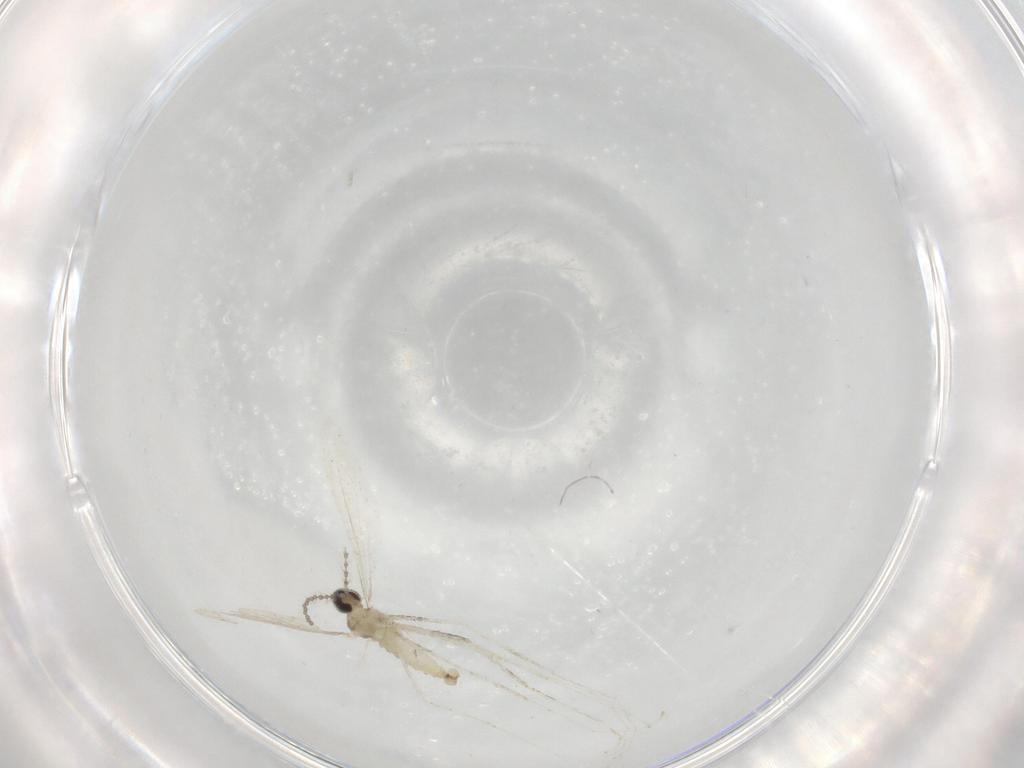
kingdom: Animalia
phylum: Arthropoda
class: Insecta
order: Diptera
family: Cecidomyiidae
